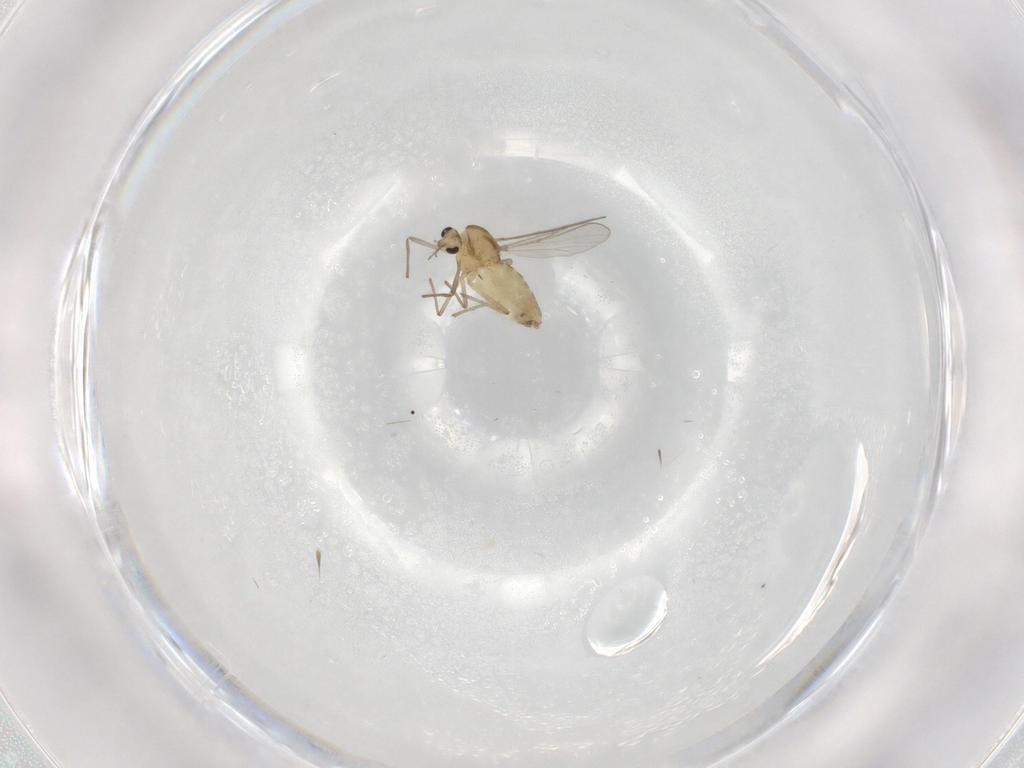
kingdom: Animalia
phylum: Arthropoda
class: Insecta
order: Diptera
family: Chironomidae
